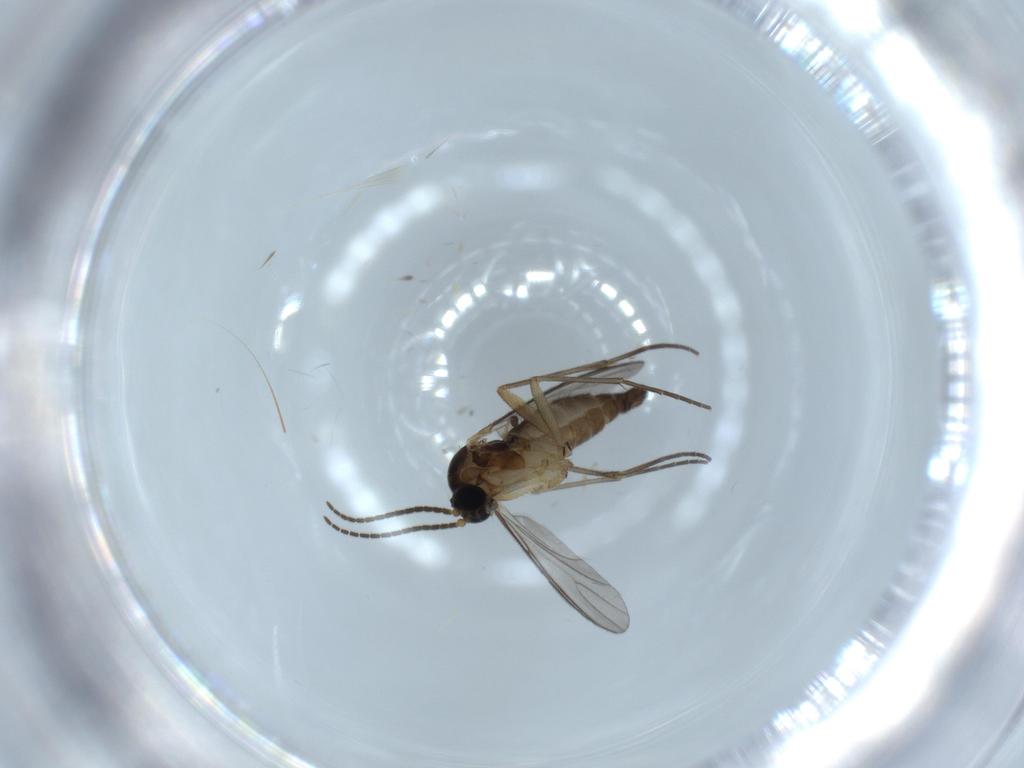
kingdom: Animalia
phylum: Arthropoda
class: Insecta
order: Diptera
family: Sciaridae
